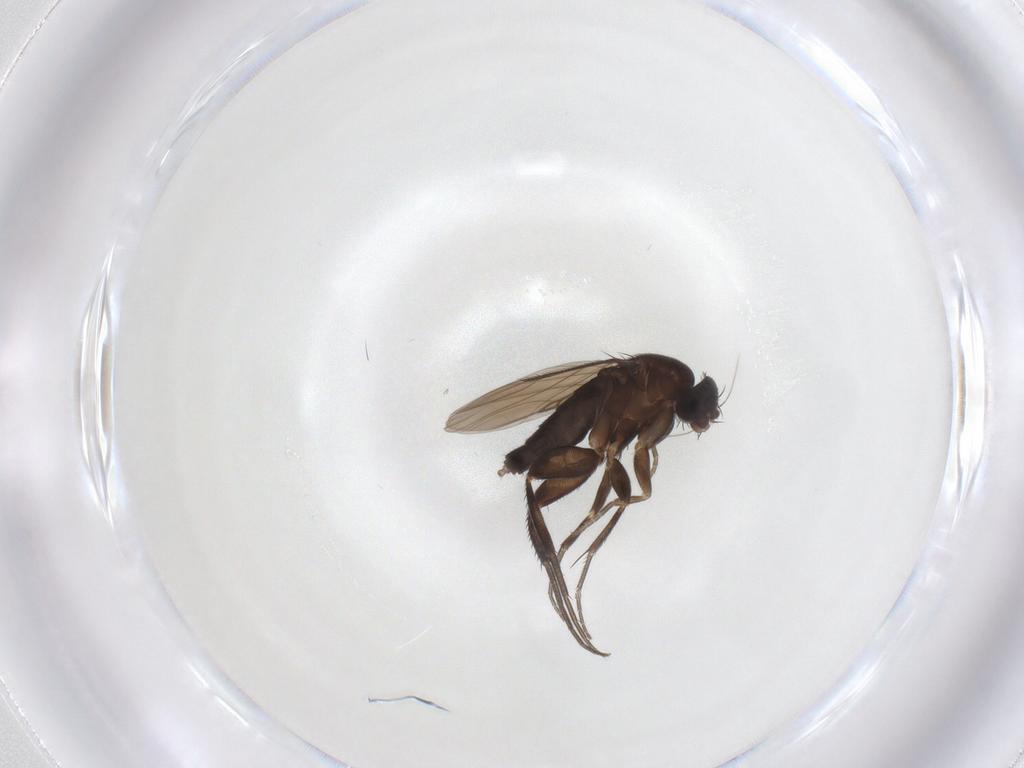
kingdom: Animalia
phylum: Arthropoda
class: Insecta
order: Diptera
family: Phoridae
